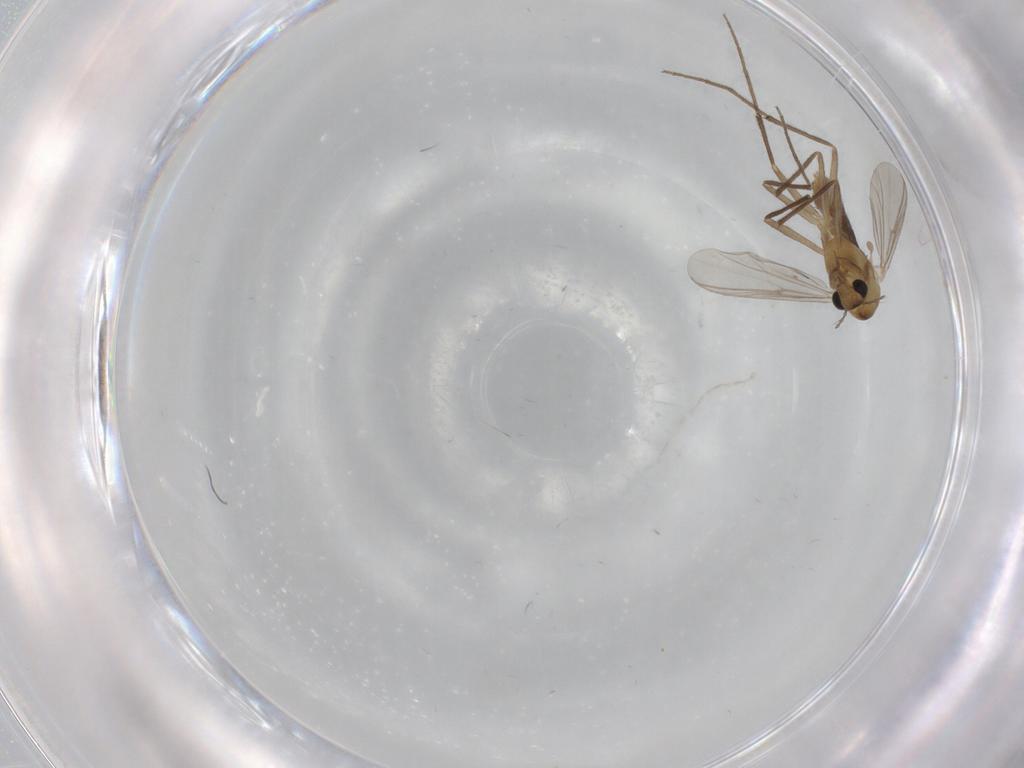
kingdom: Animalia
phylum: Arthropoda
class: Insecta
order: Diptera
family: Chironomidae
